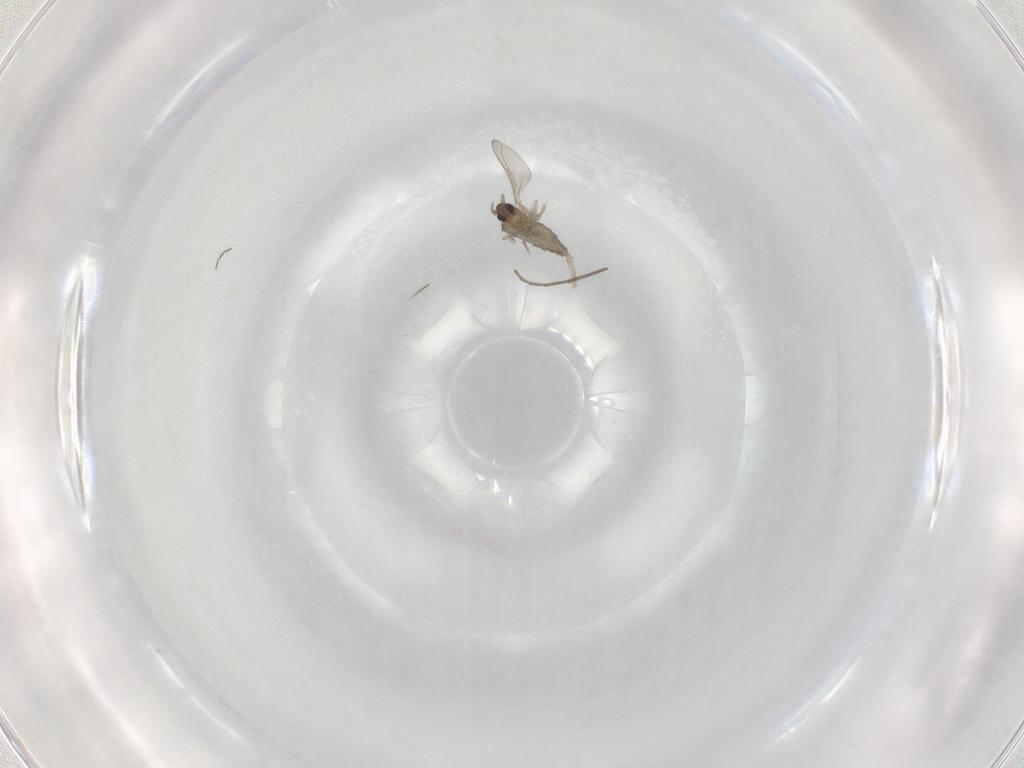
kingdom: Animalia
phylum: Arthropoda
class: Insecta
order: Diptera
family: Cecidomyiidae
